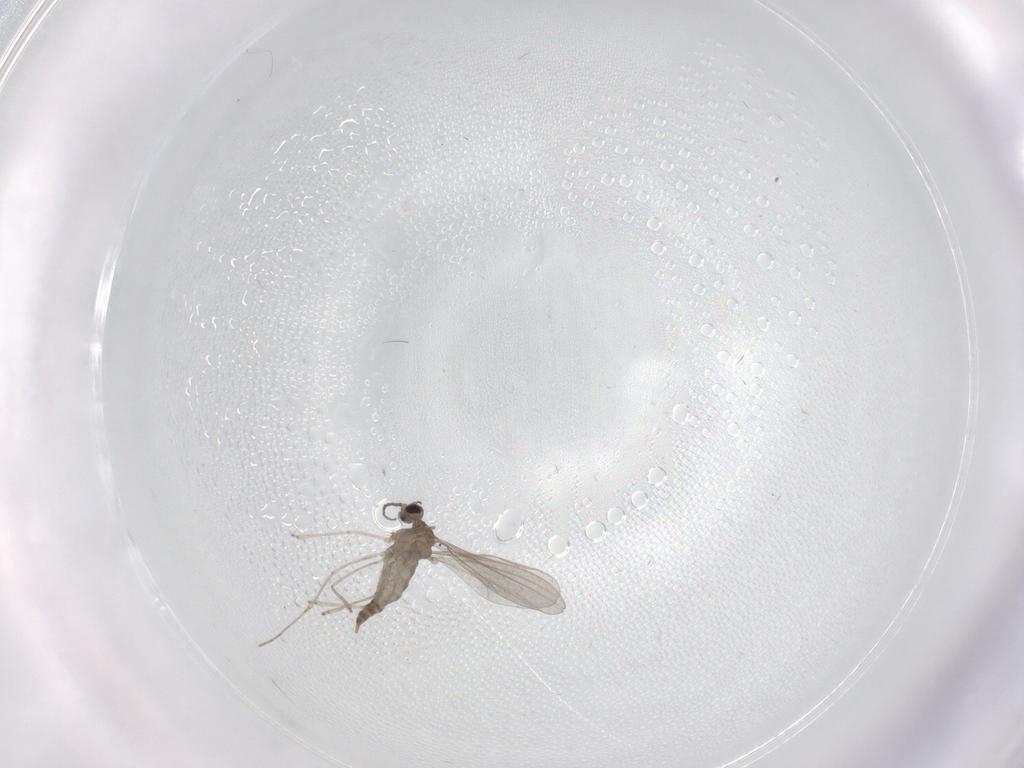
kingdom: Animalia
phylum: Arthropoda
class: Insecta
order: Diptera
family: Cecidomyiidae
